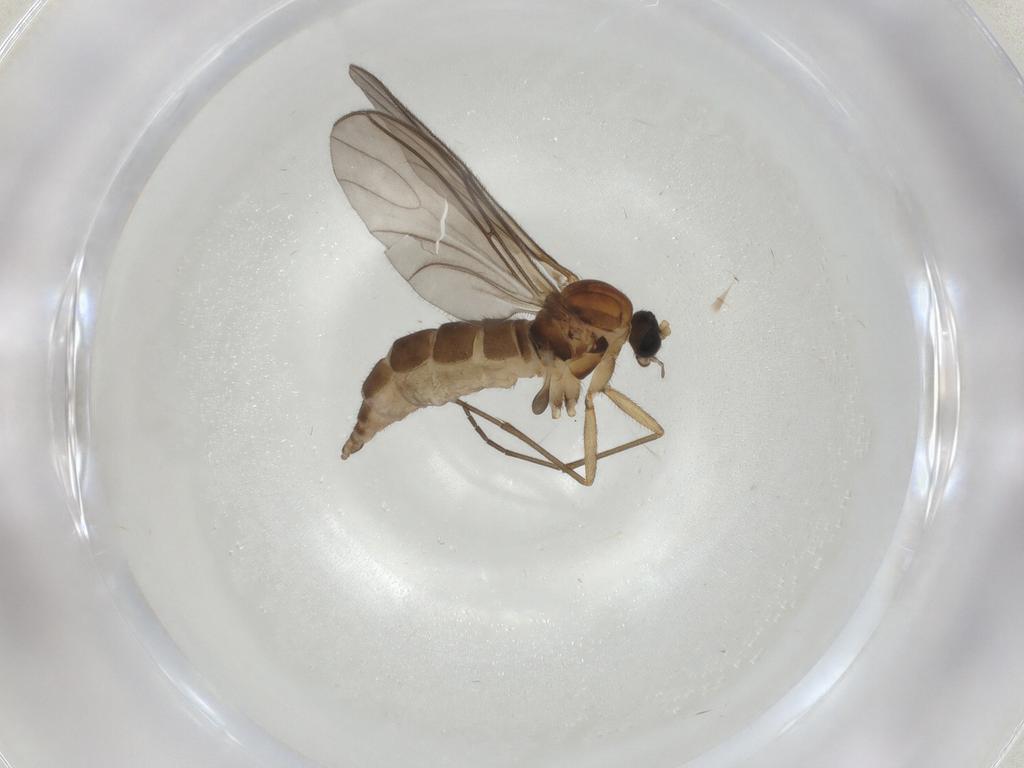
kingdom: Animalia
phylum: Arthropoda
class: Insecta
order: Diptera
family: Sciaridae
